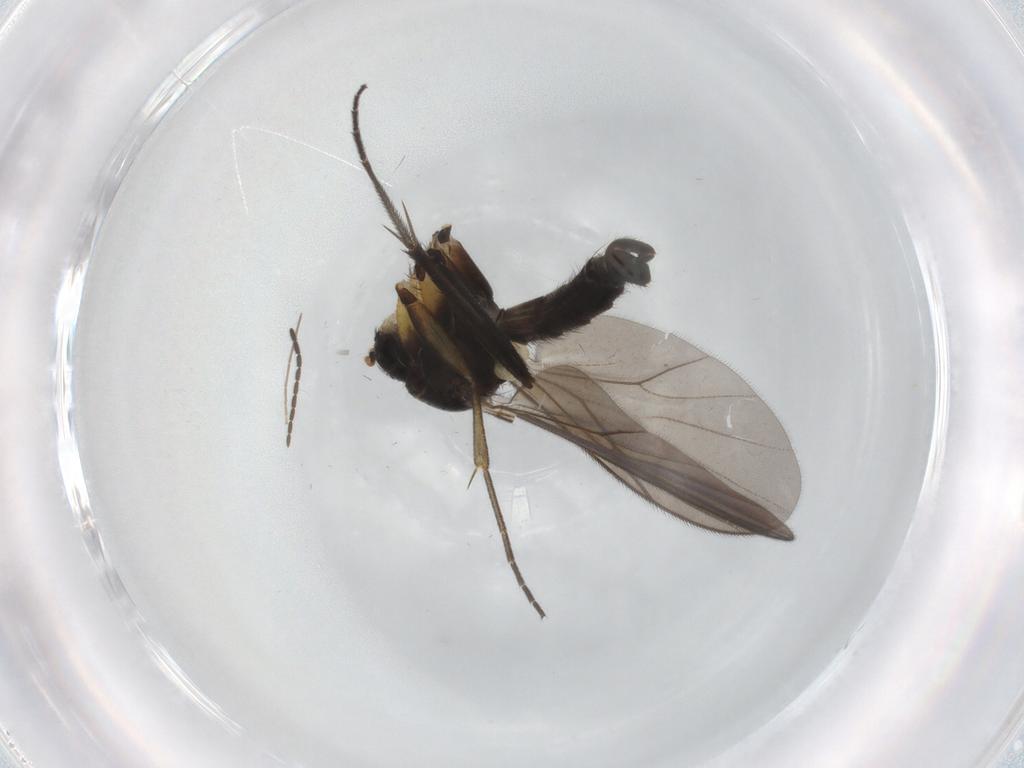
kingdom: Animalia
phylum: Arthropoda
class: Insecta
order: Diptera
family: Mycetophilidae
